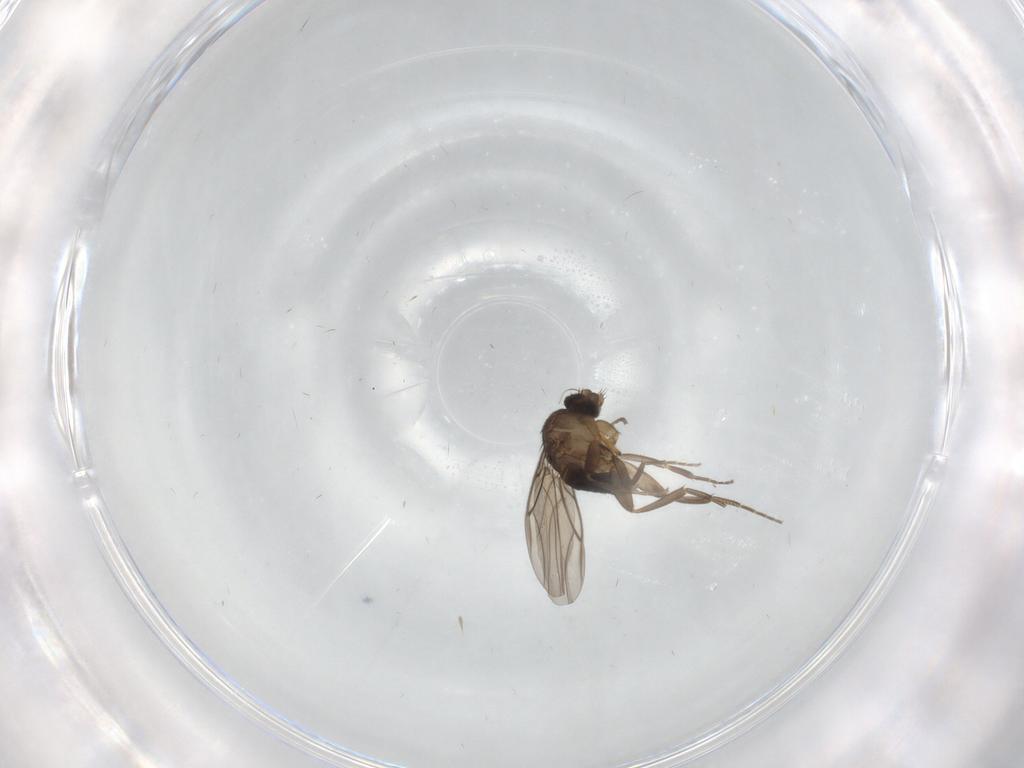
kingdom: Animalia
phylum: Arthropoda
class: Insecta
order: Diptera
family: Phoridae
